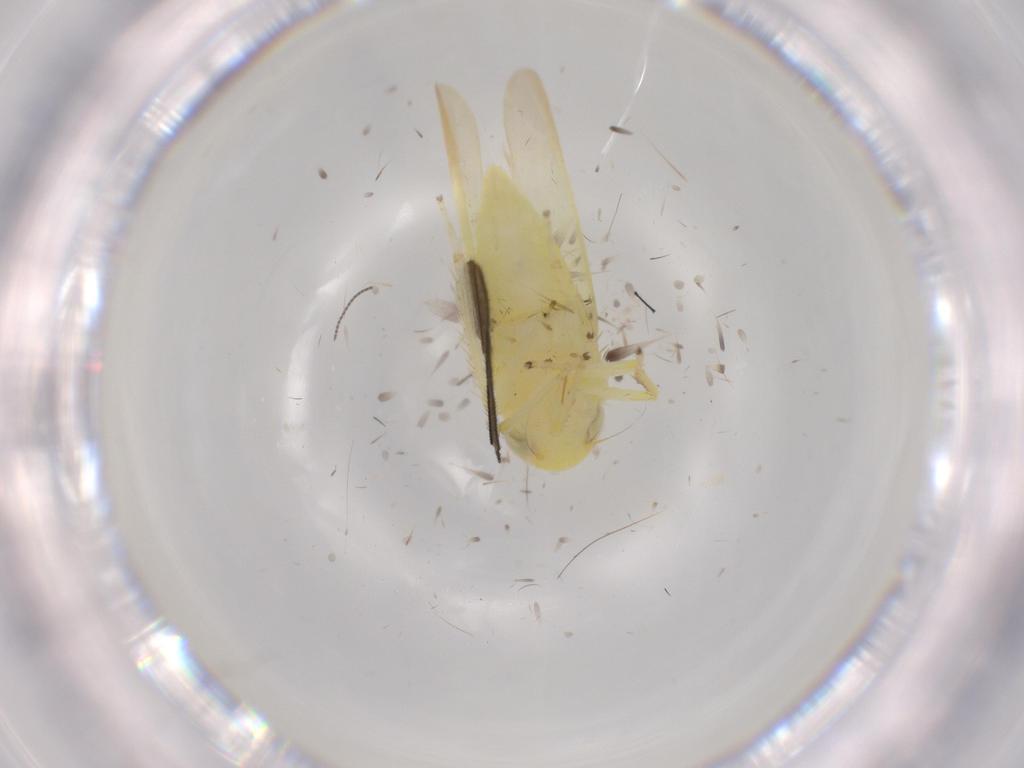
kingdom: Animalia
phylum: Arthropoda
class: Insecta
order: Hemiptera
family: Cicadellidae
